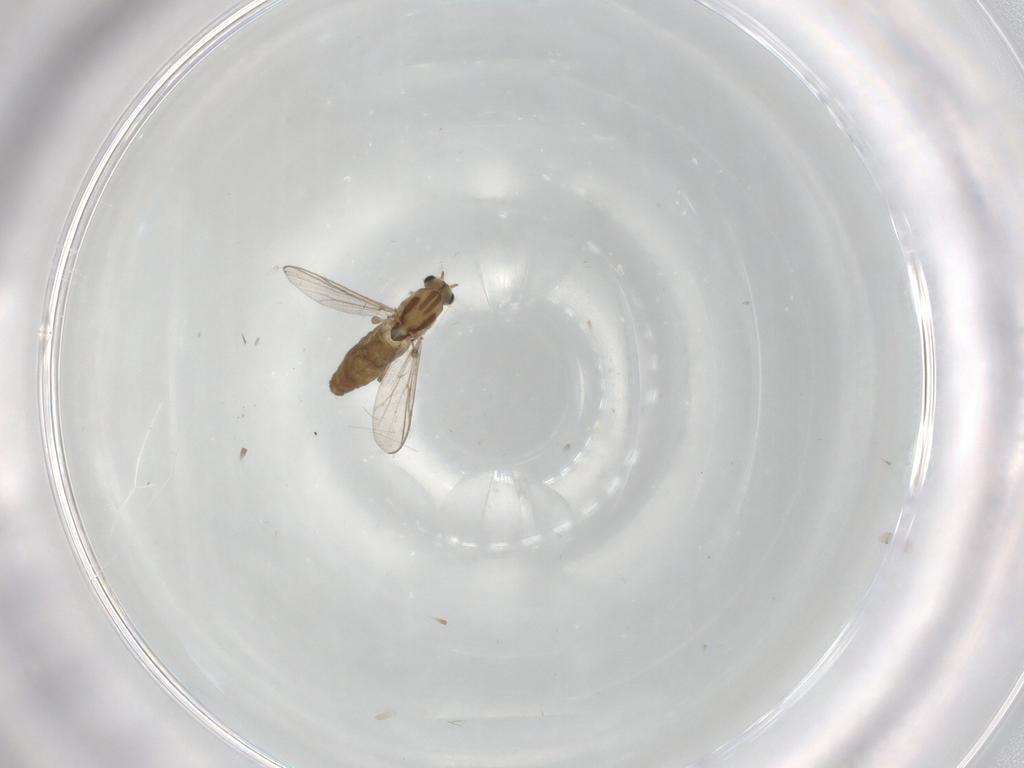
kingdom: Animalia
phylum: Arthropoda
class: Insecta
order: Diptera
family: Chironomidae
